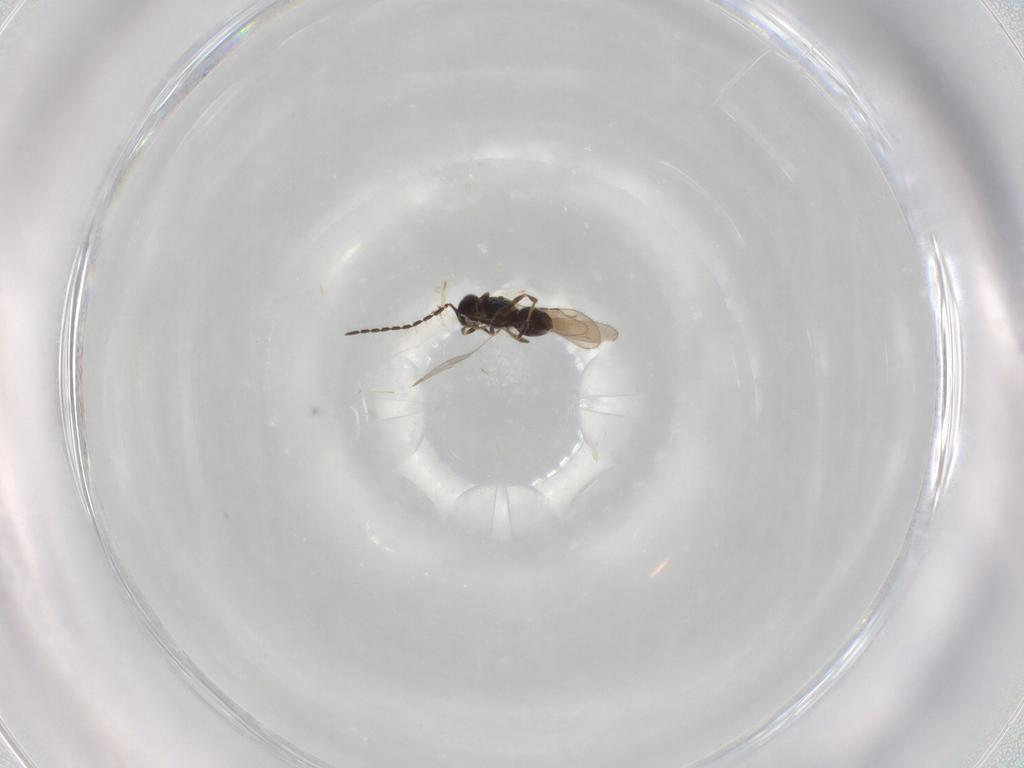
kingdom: Animalia
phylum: Arthropoda
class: Insecta
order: Hymenoptera
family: Ceraphronidae
